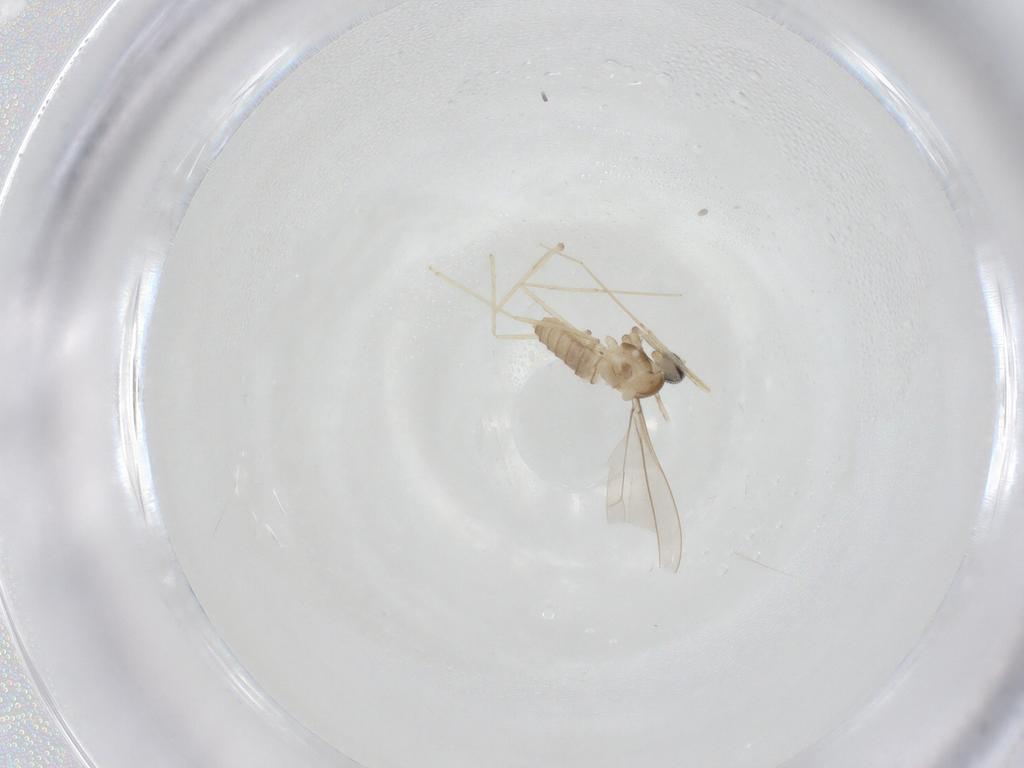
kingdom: Animalia
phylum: Arthropoda
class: Insecta
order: Diptera
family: Cecidomyiidae
